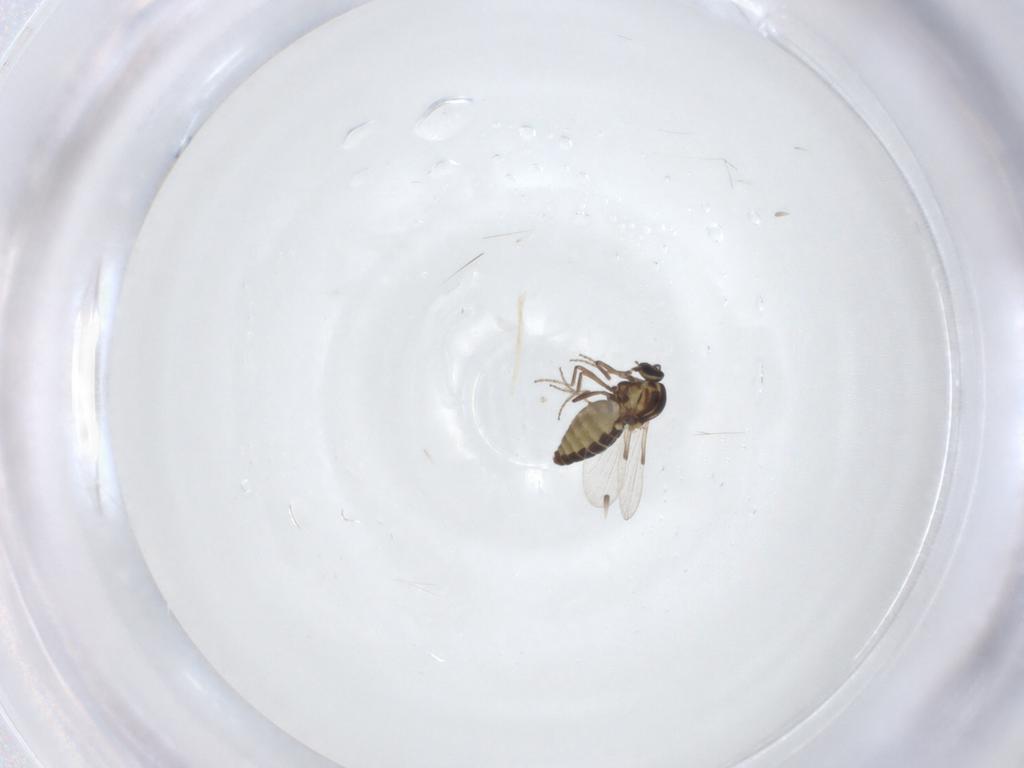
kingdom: Animalia
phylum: Arthropoda
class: Insecta
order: Diptera
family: Ceratopogonidae
